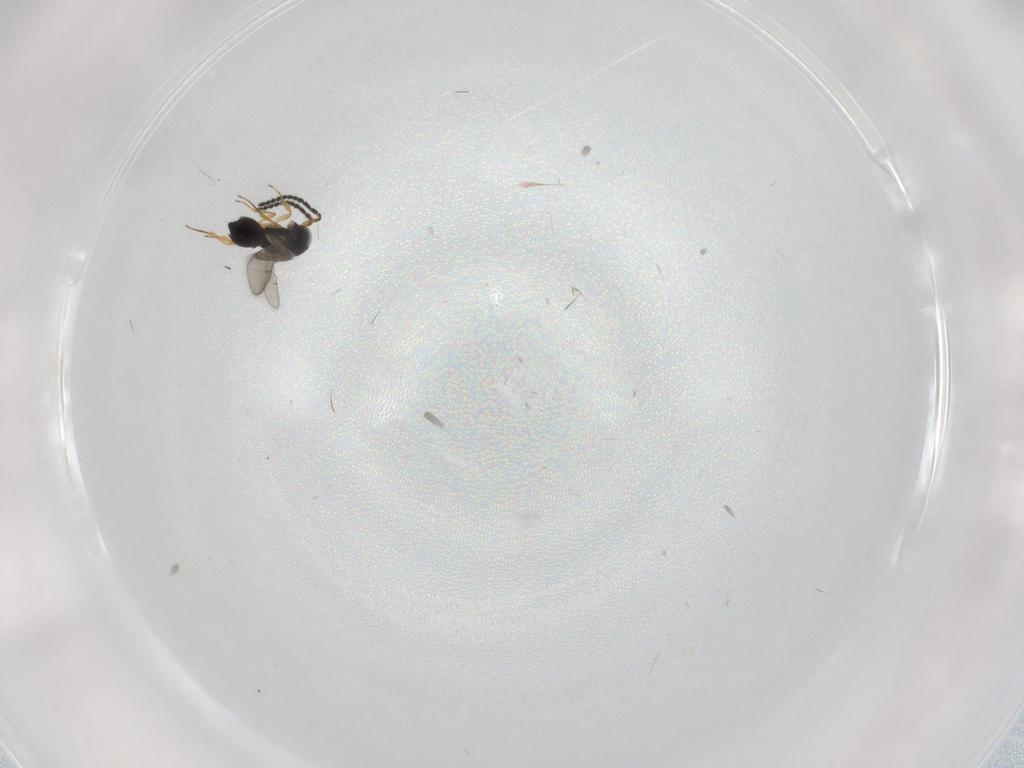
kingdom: Animalia
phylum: Arthropoda
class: Insecta
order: Hymenoptera
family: Scelionidae
